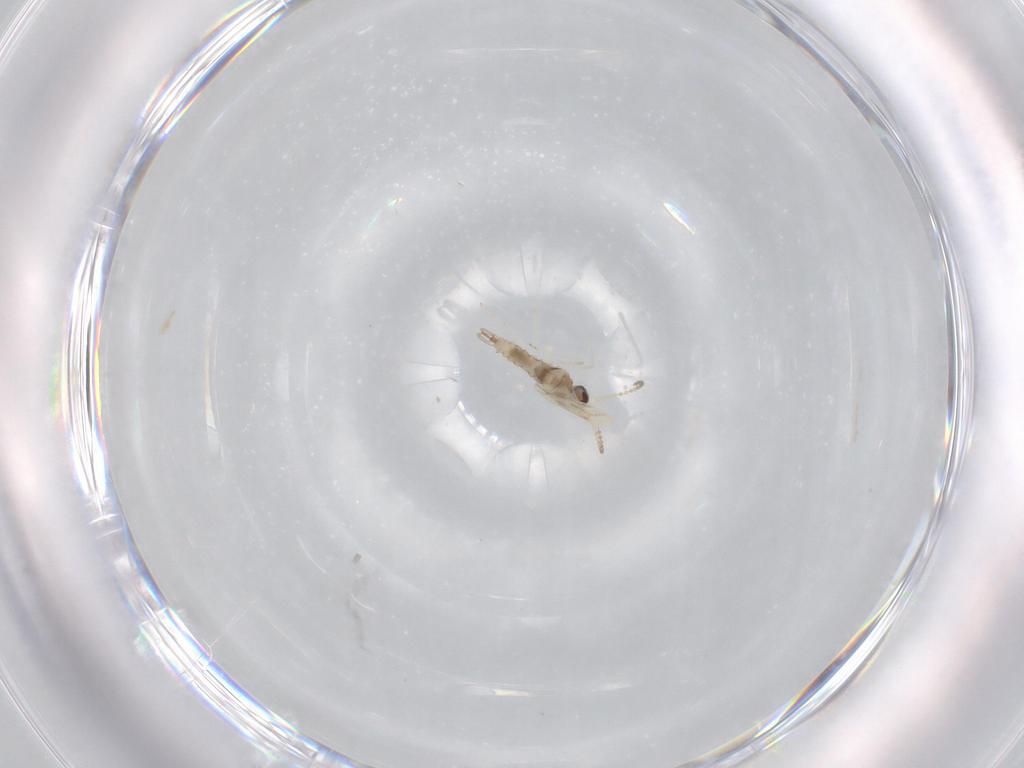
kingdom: Animalia
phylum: Arthropoda
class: Insecta
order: Diptera
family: Cecidomyiidae
